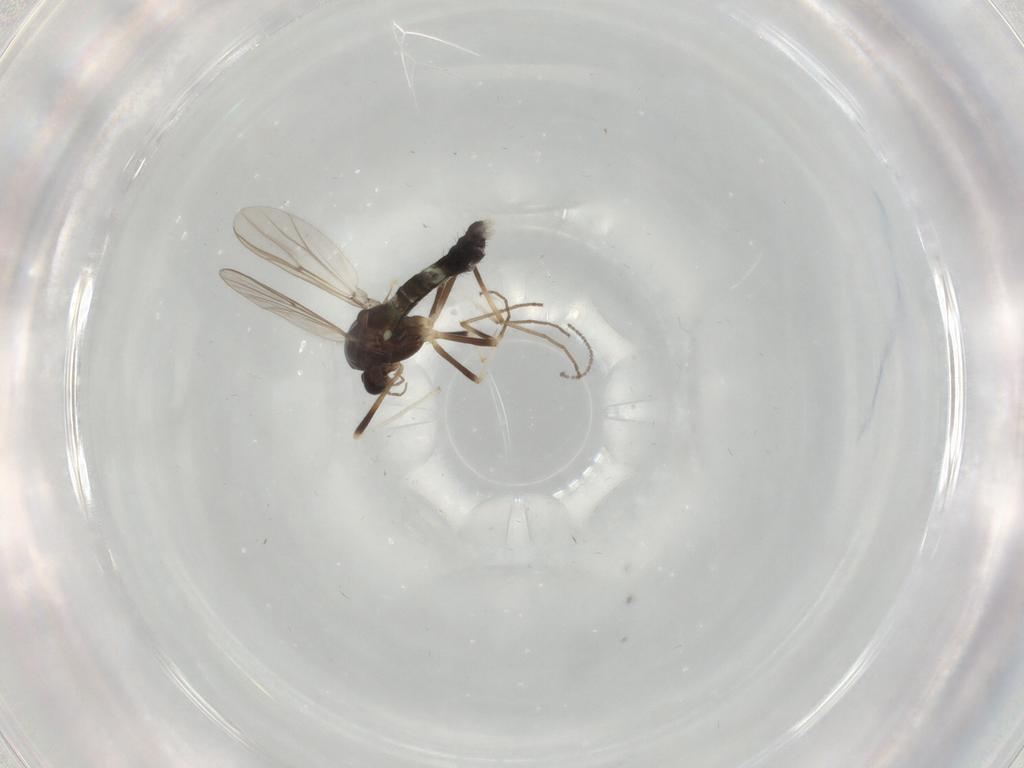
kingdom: Animalia
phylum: Arthropoda
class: Insecta
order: Diptera
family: Chironomidae
